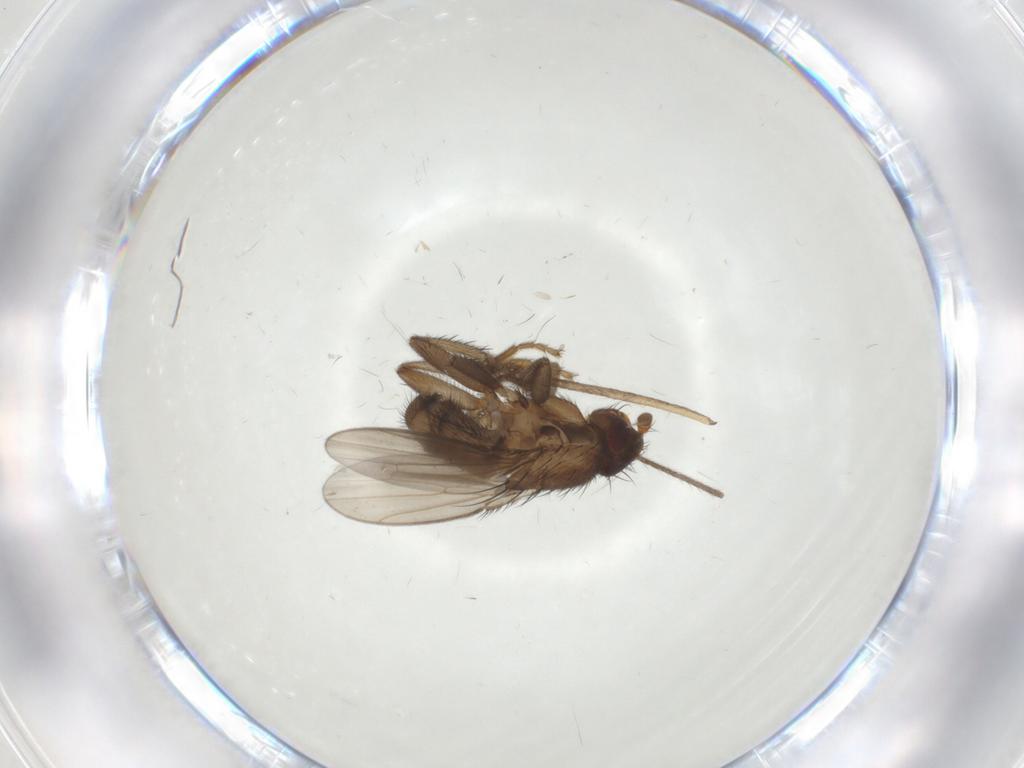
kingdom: Animalia
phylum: Arthropoda
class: Insecta
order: Diptera
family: Sphaeroceridae
